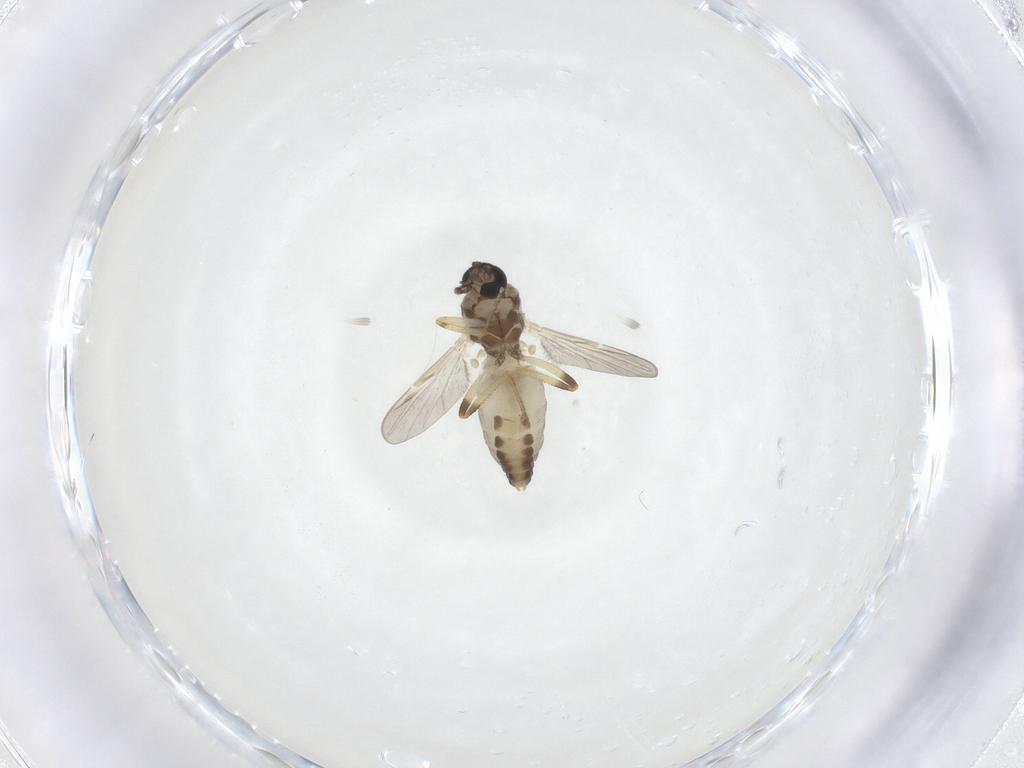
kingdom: Animalia
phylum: Arthropoda
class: Insecta
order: Diptera
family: Ceratopogonidae
